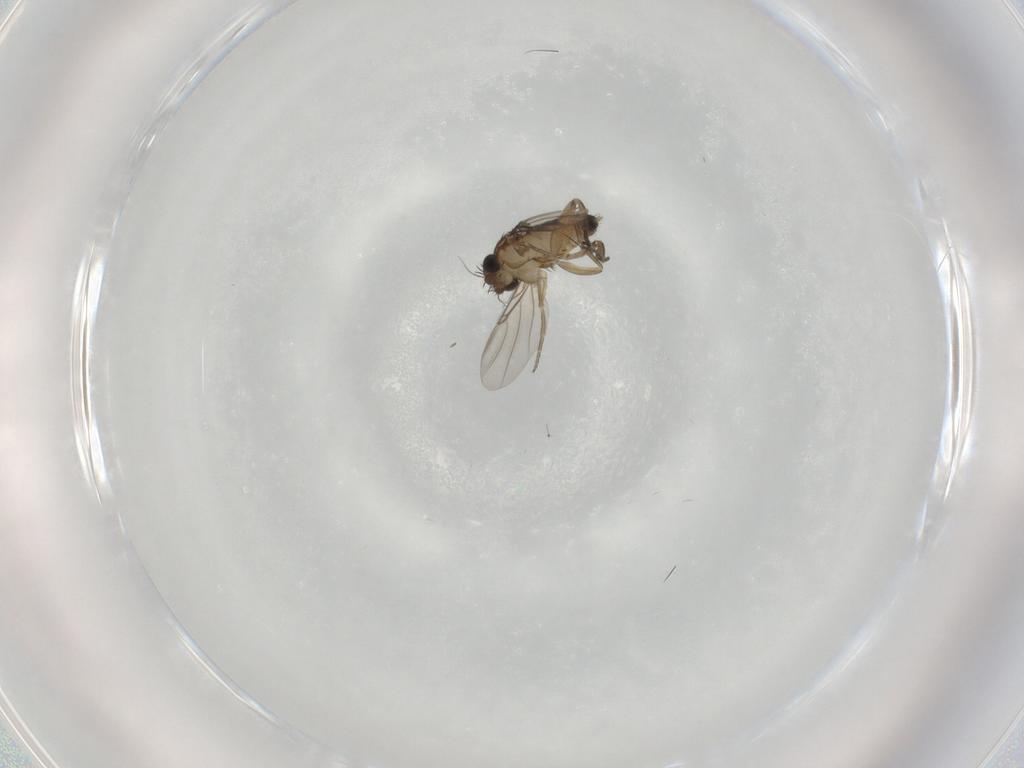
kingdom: Animalia
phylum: Arthropoda
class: Insecta
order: Diptera
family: Phoridae
